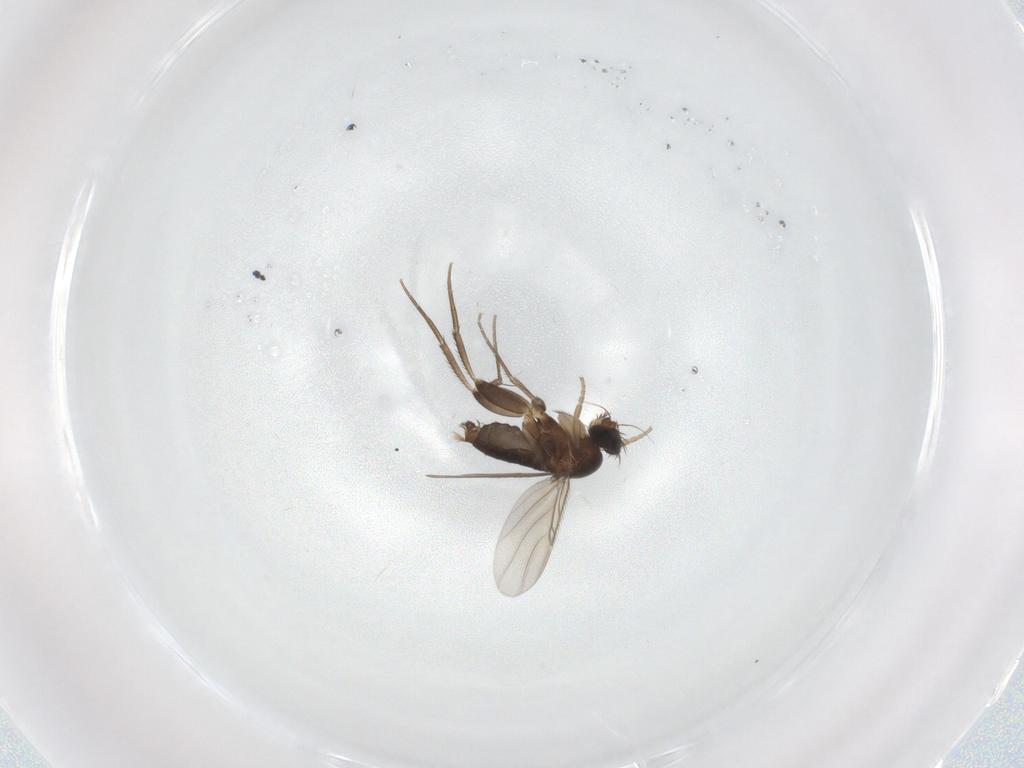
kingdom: Animalia
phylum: Arthropoda
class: Insecta
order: Diptera
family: Phoridae
